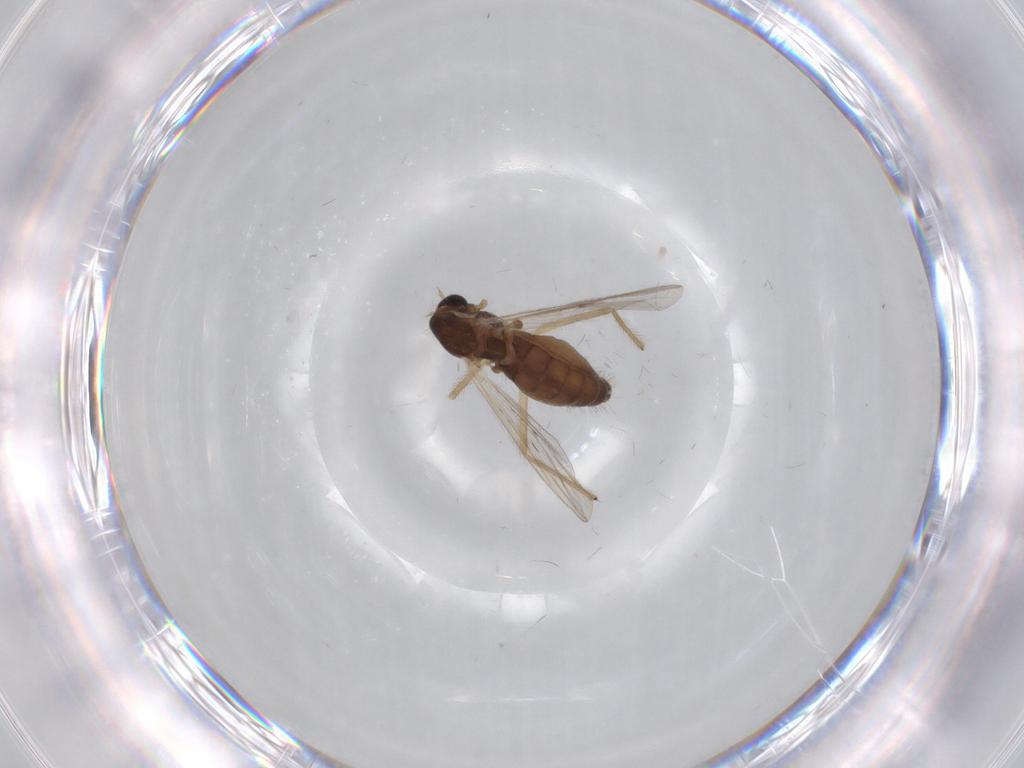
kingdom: Animalia
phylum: Arthropoda
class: Insecta
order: Diptera
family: Chironomidae
